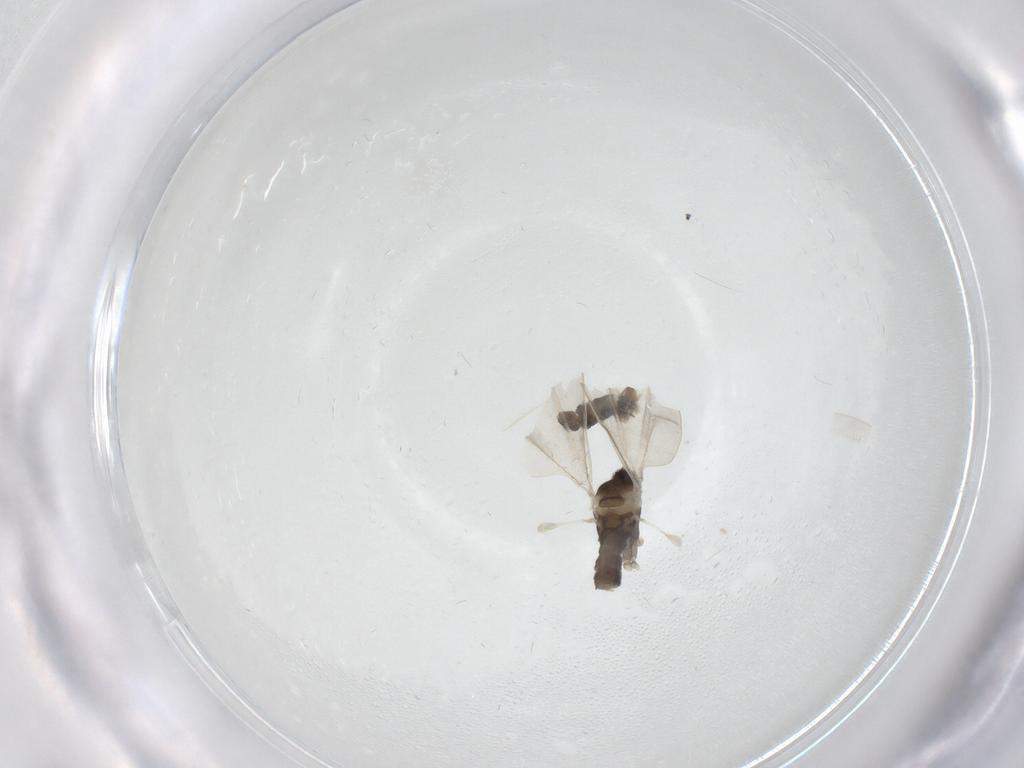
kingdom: Animalia
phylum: Arthropoda
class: Insecta
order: Diptera
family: Cecidomyiidae
